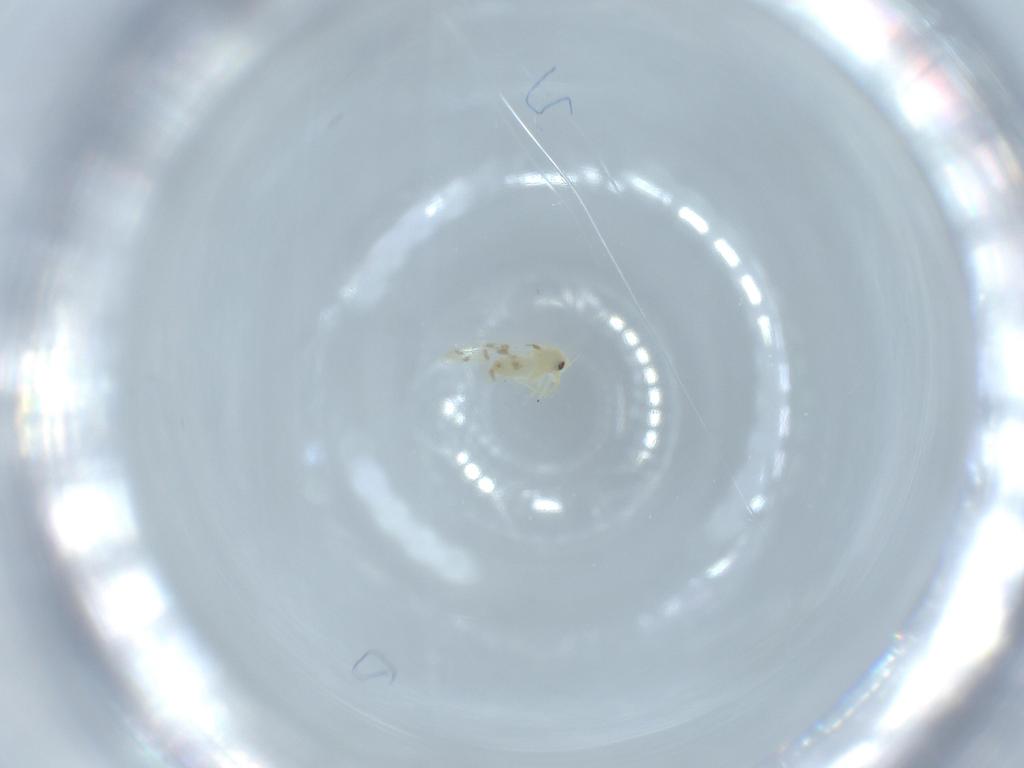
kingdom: Animalia
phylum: Arthropoda
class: Insecta
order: Hemiptera
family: Aleyrodidae
